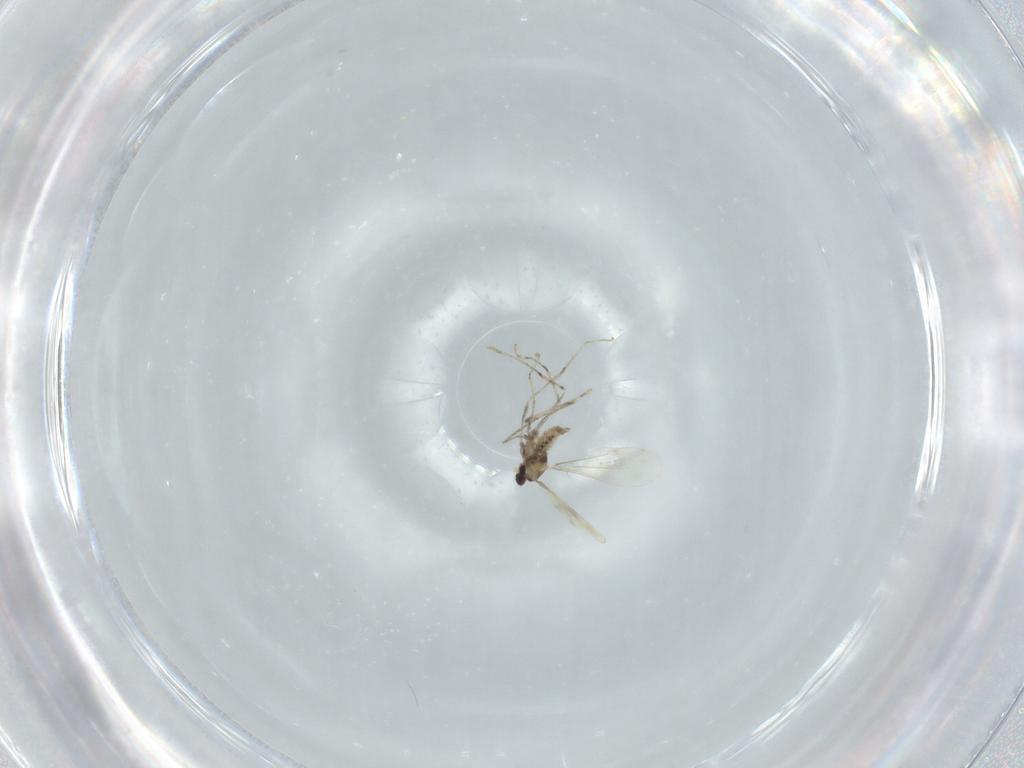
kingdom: Animalia
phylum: Arthropoda
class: Insecta
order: Diptera
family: Cecidomyiidae
